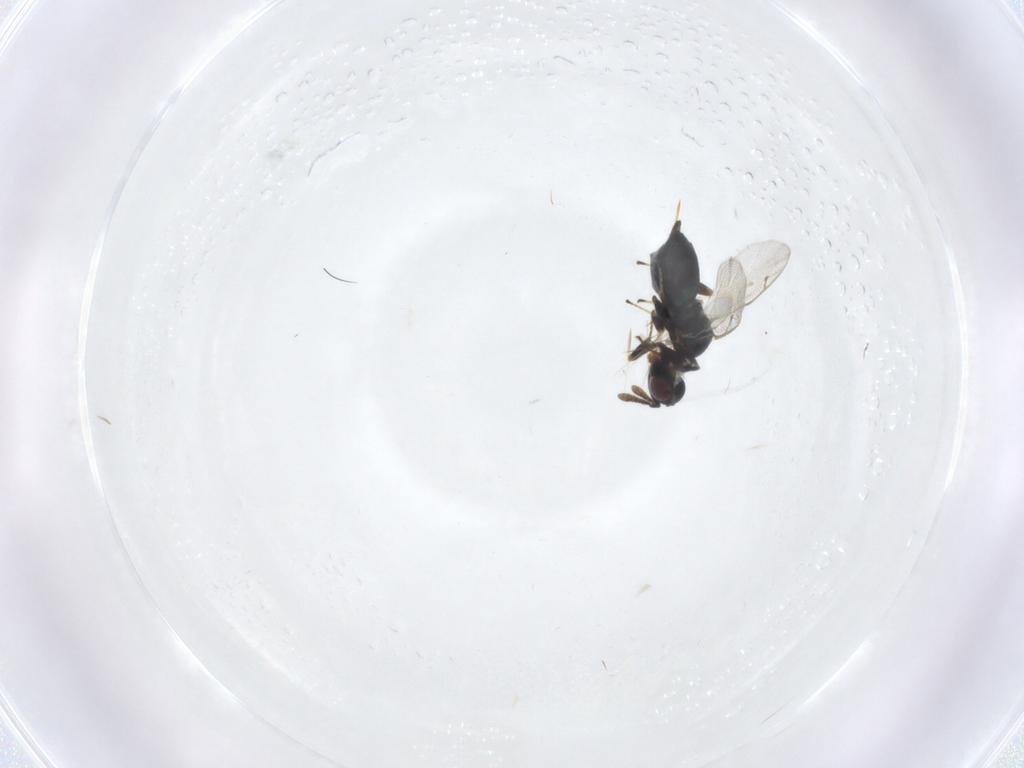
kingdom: Animalia
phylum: Arthropoda
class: Insecta
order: Hymenoptera
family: Pteromalidae
